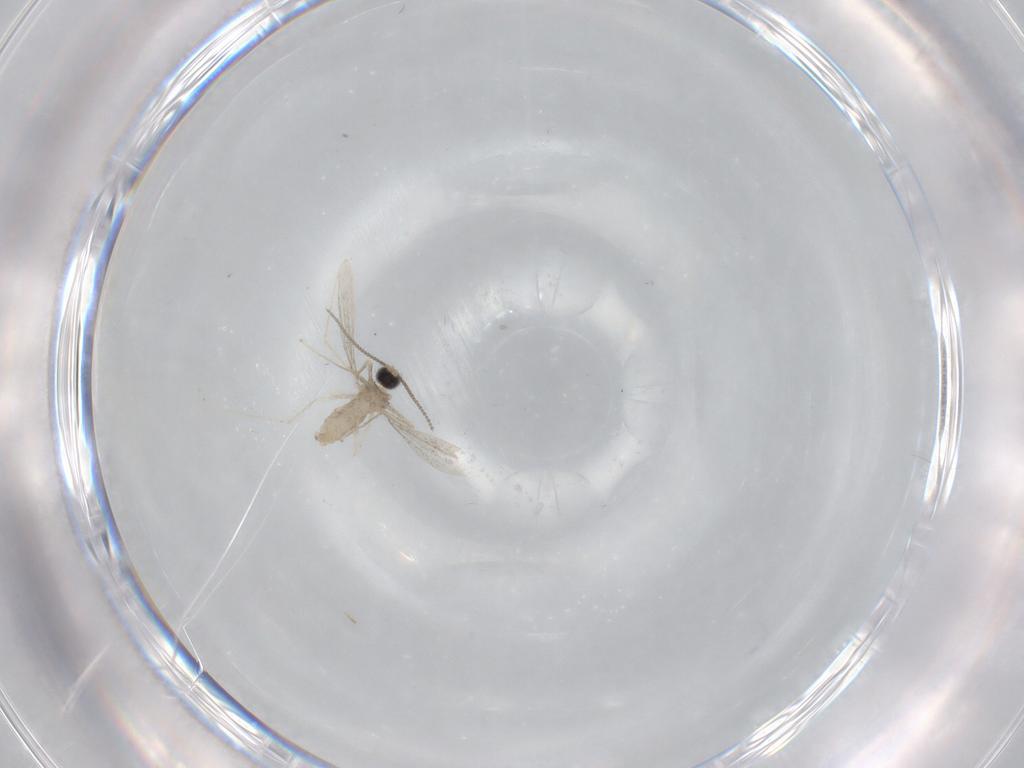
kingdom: Animalia
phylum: Arthropoda
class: Insecta
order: Diptera
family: Cecidomyiidae
